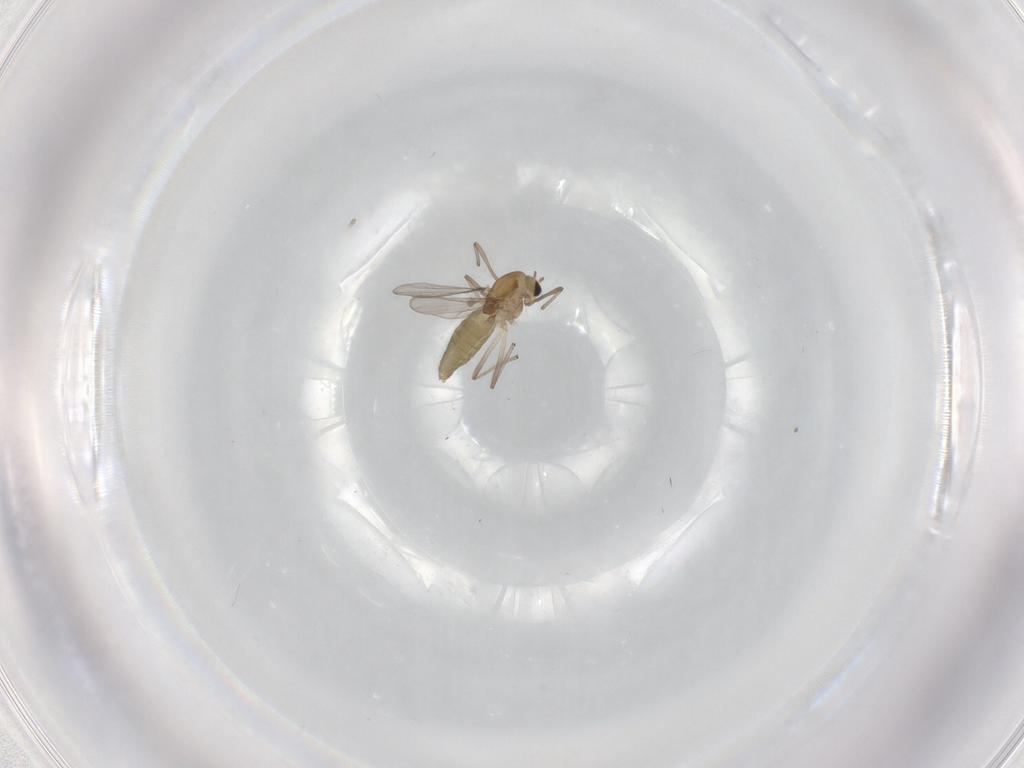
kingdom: Animalia
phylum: Arthropoda
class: Insecta
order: Diptera
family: Chironomidae
